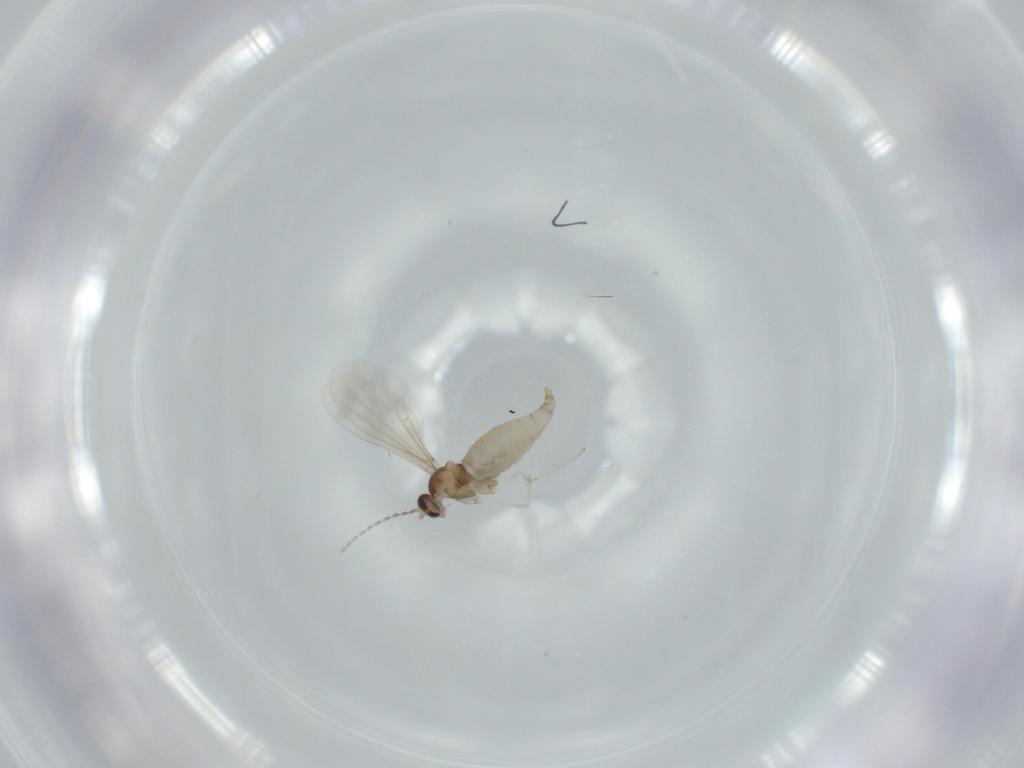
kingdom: Animalia
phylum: Arthropoda
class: Insecta
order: Diptera
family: Cecidomyiidae
